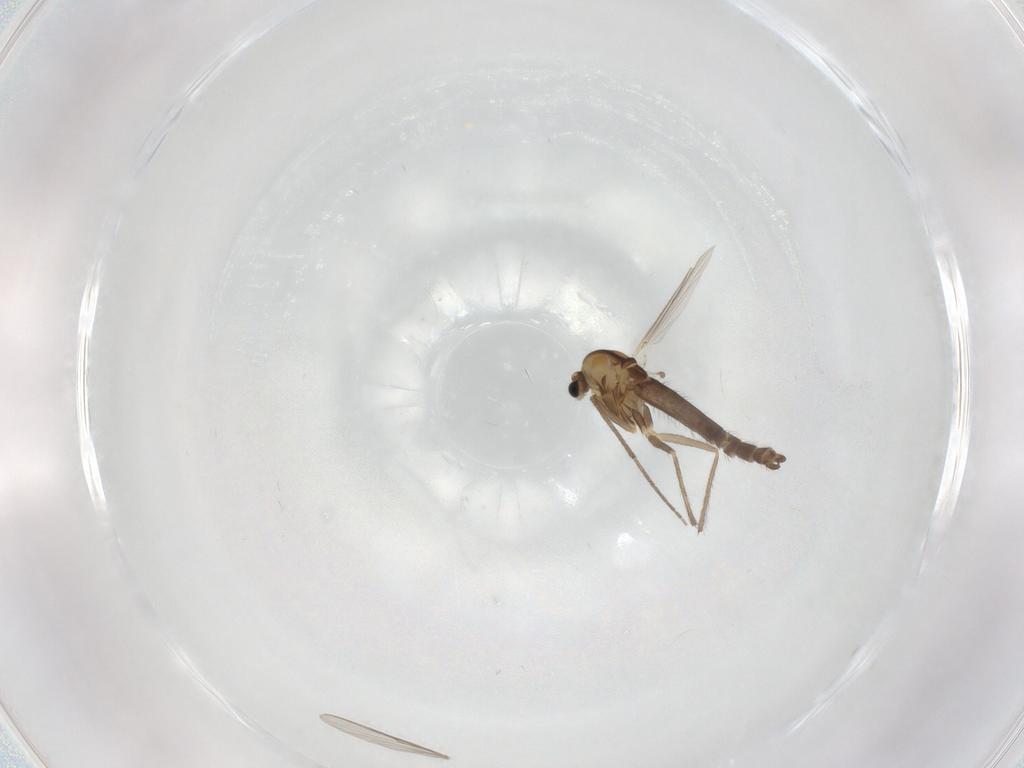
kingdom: Animalia
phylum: Arthropoda
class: Insecta
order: Diptera
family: Chironomidae
